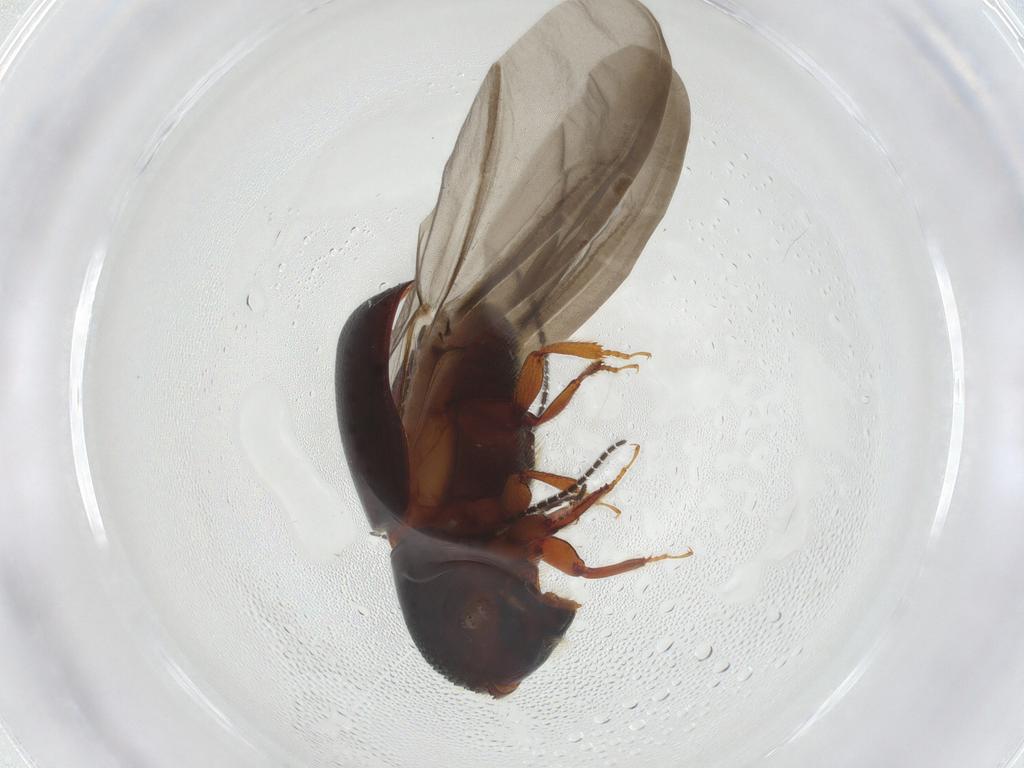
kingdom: Animalia
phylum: Arthropoda
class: Insecta
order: Coleoptera
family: Curculionidae
